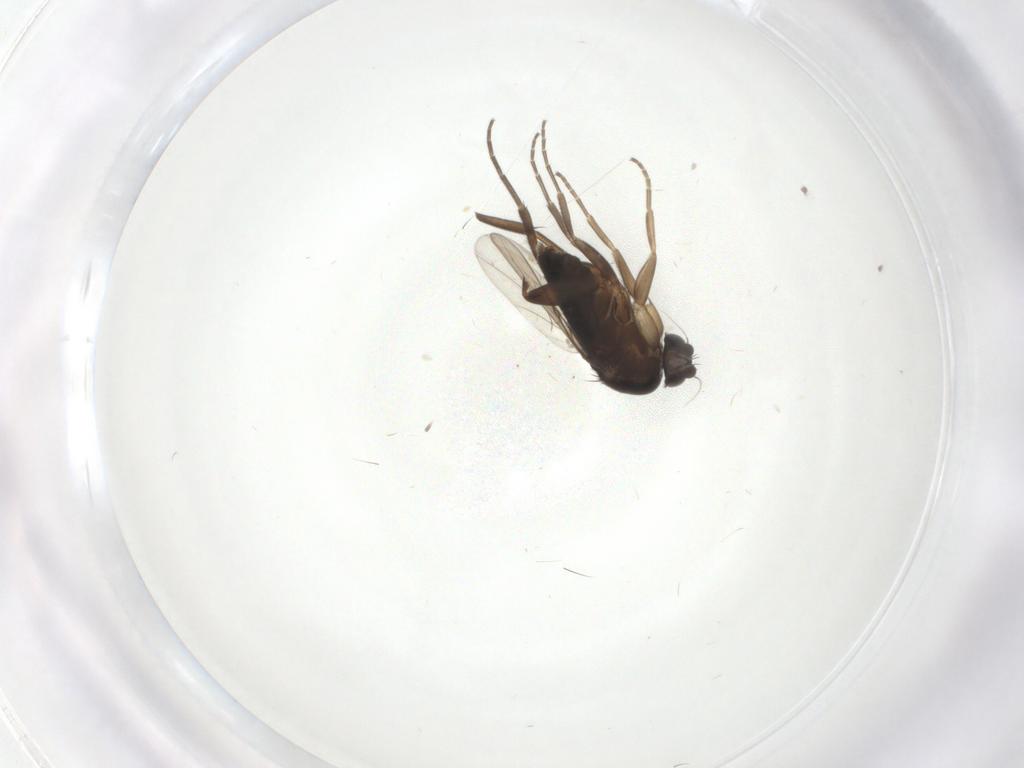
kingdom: Animalia
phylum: Arthropoda
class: Insecta
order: Diptera
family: Phoridae
